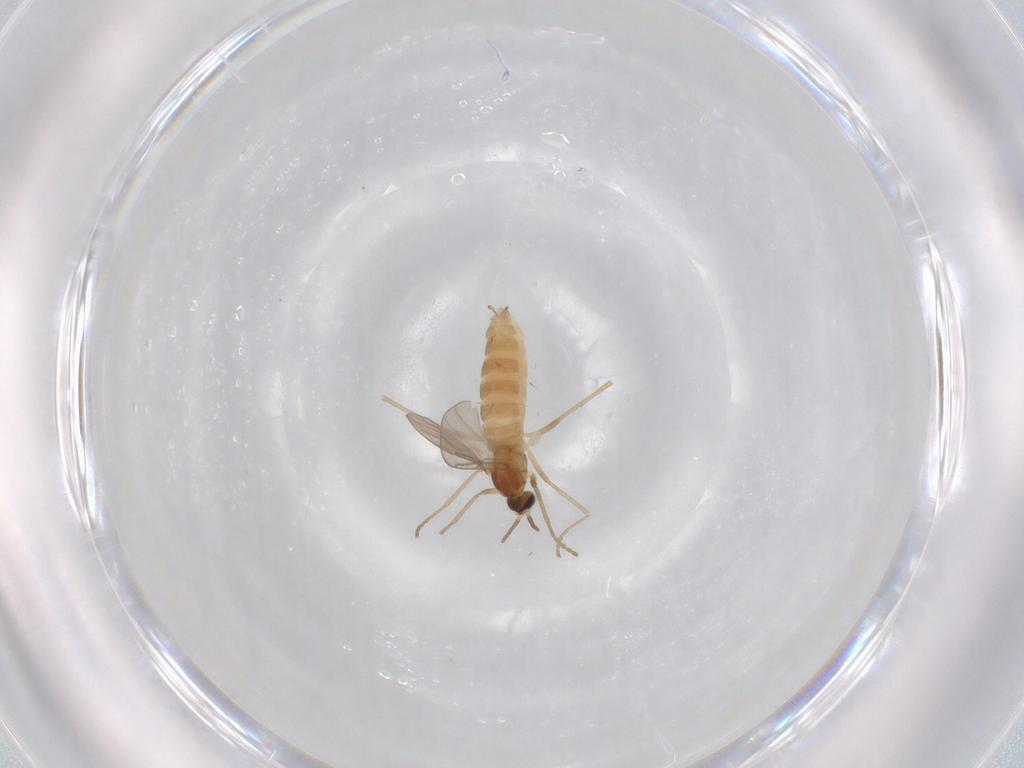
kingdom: Animalia
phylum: Arthropoda
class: Insecta
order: Diptera
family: Muscidae
